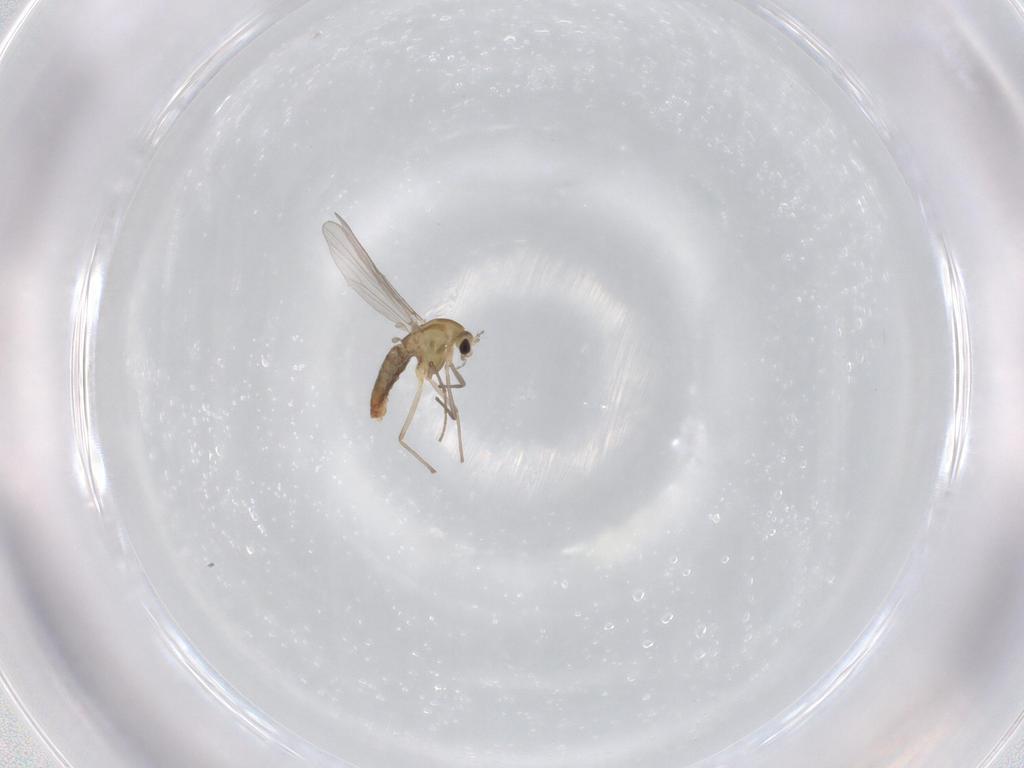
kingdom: Animalia
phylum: Arthropoda
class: Insecta
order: Diptera
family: Chironomidae
